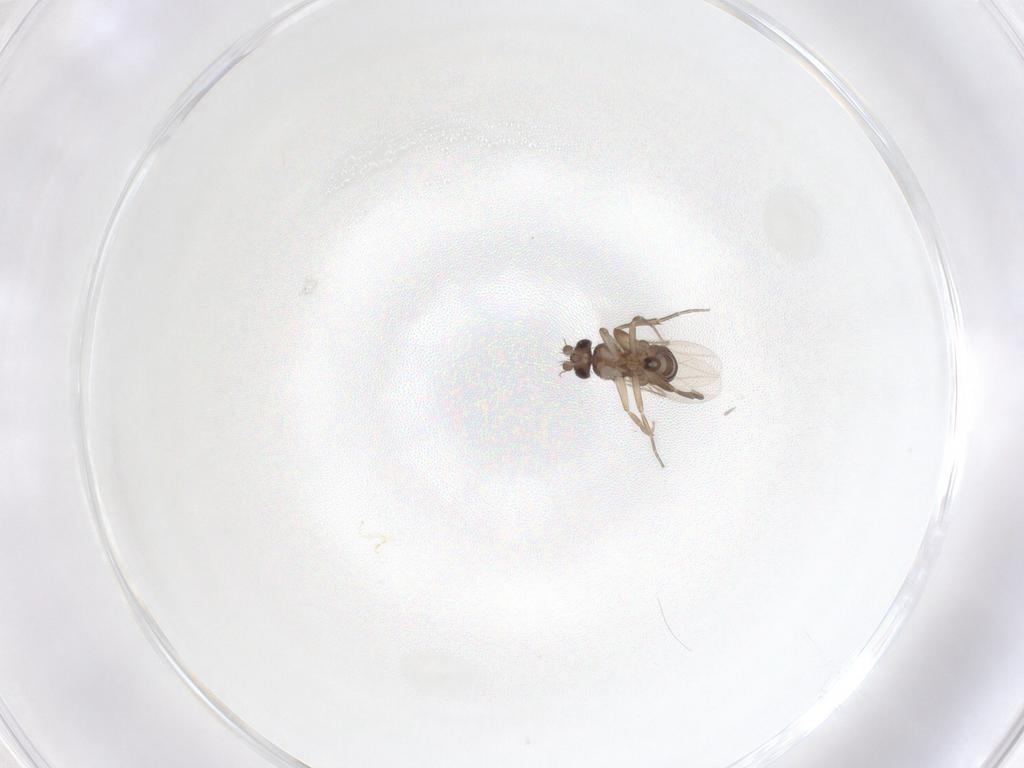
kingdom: Animalia
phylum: Arthropoda
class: Insecta
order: Diptera
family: Phoridae
